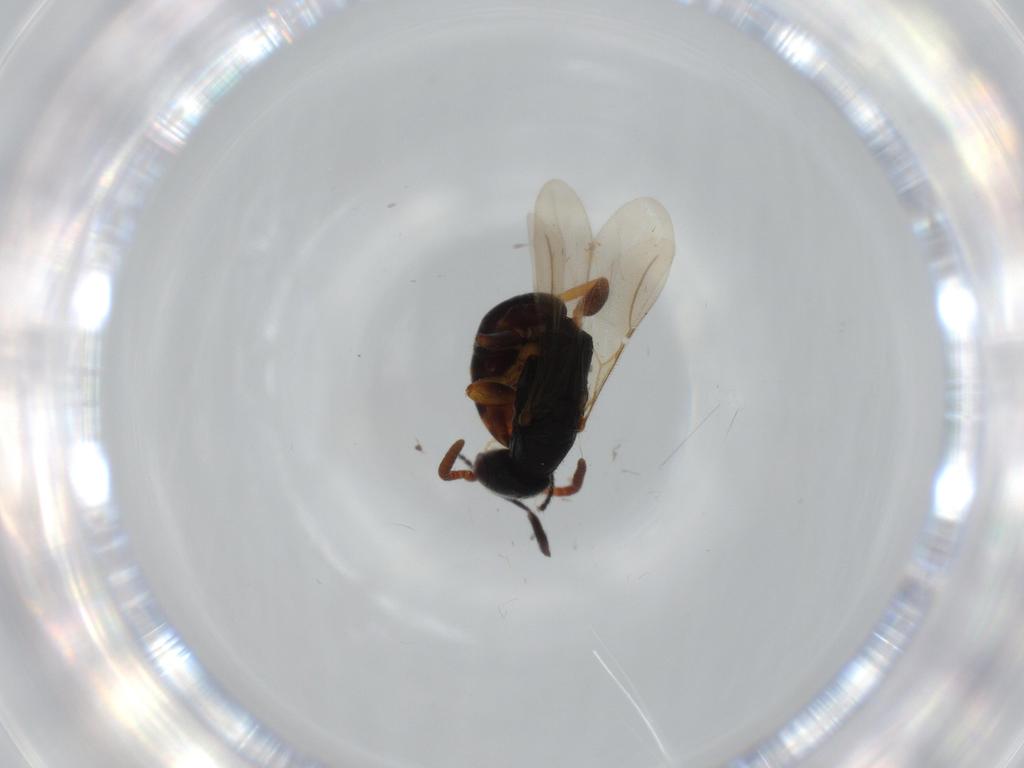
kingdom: Animalia
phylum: Arthropoda
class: Insecta
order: Hymenoptera
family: Bethylidae
